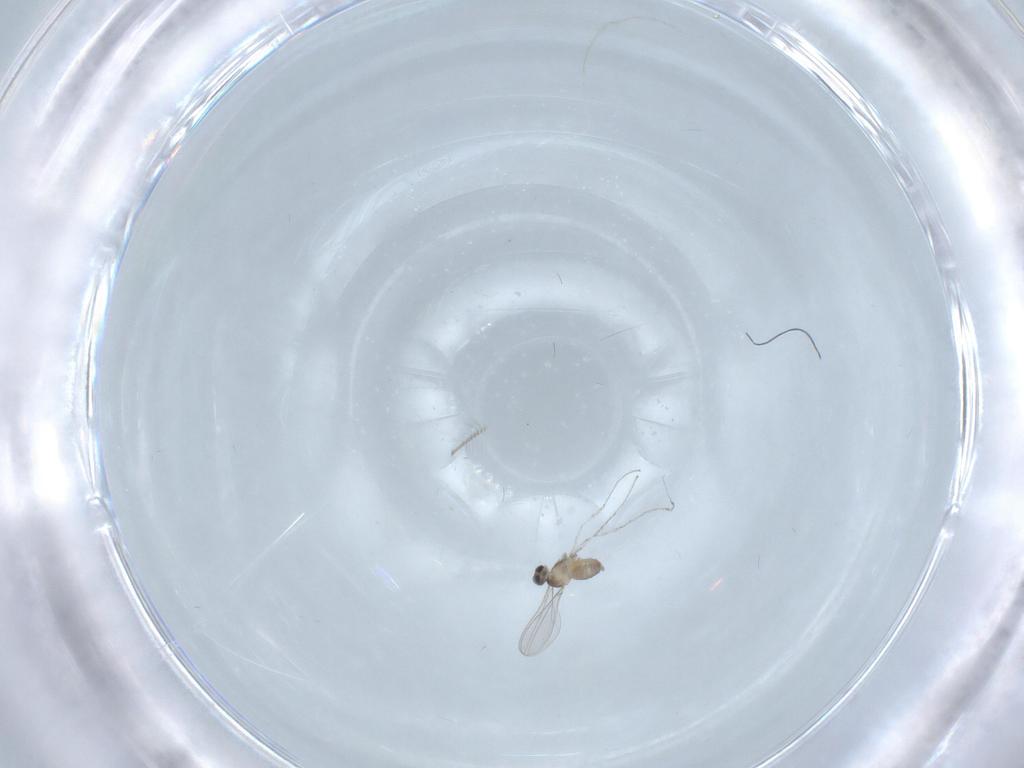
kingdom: Animalia
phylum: Arthropoda
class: Insecta
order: Diptera
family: Cecidomyiidae
